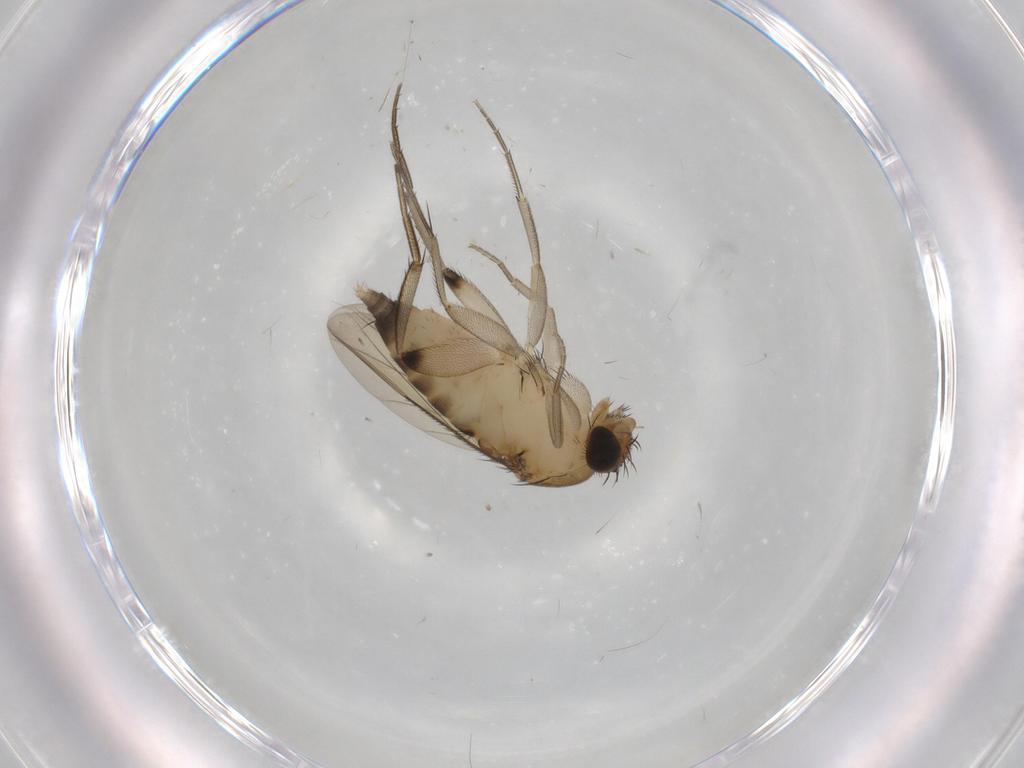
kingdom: Animalia
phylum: Arthropoda
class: Insecta
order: Diptera
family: Phoridae
